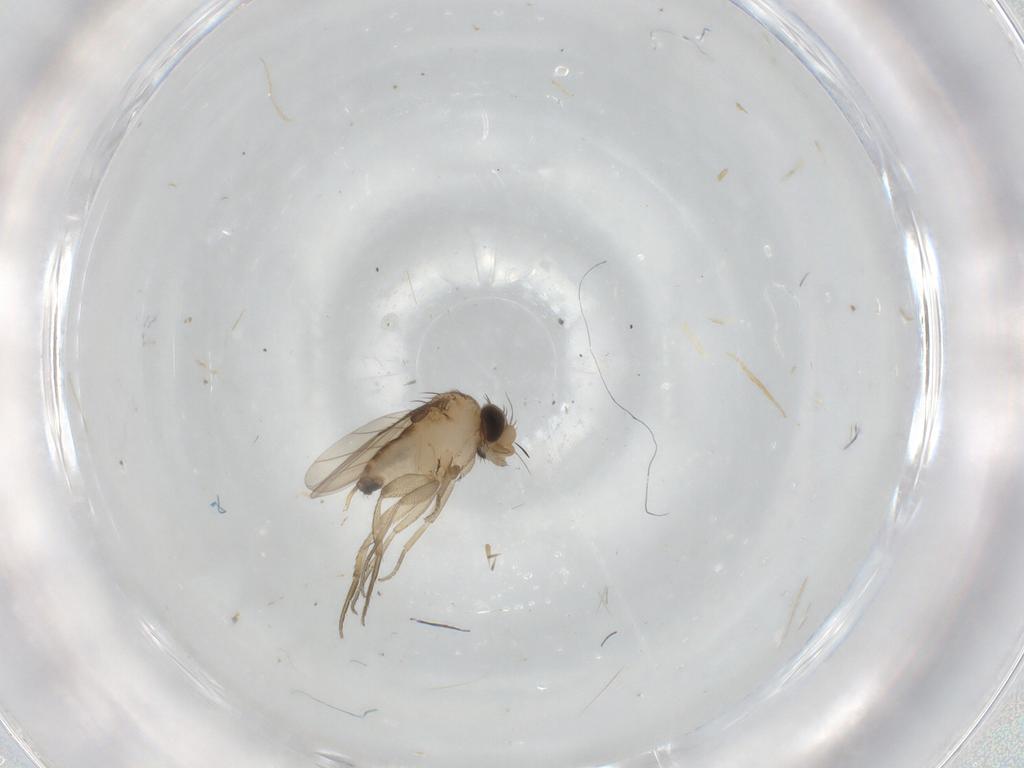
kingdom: Animalia
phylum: Arthropoda
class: Insecta
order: Diptera
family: Phoridae
